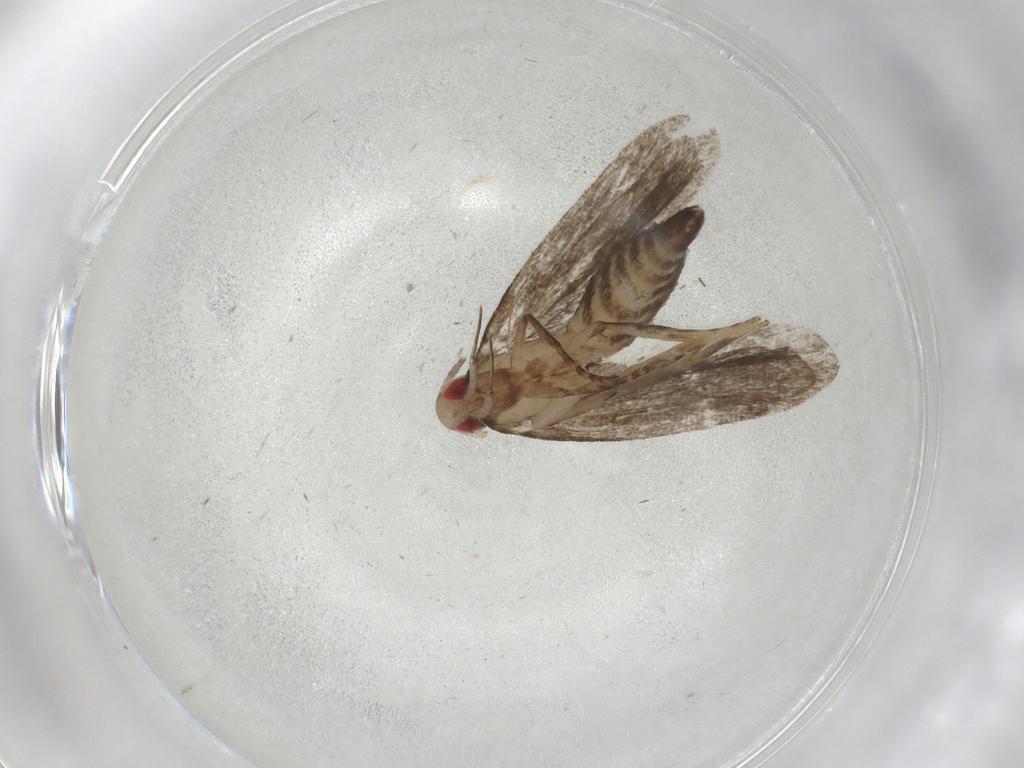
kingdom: Animalia
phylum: Arthropoda
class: Insecta
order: Lepidoptera
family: Gelechiidae
